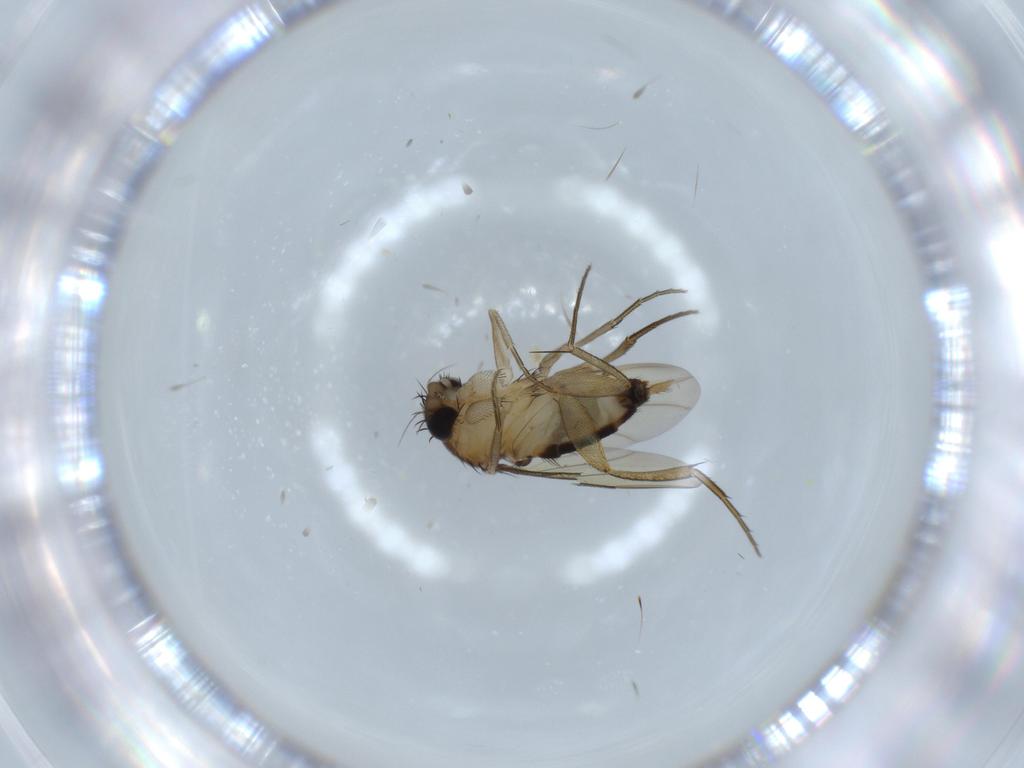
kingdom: Animalia
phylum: Arthropoda
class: Insecta
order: Diptera
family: Phoridae
